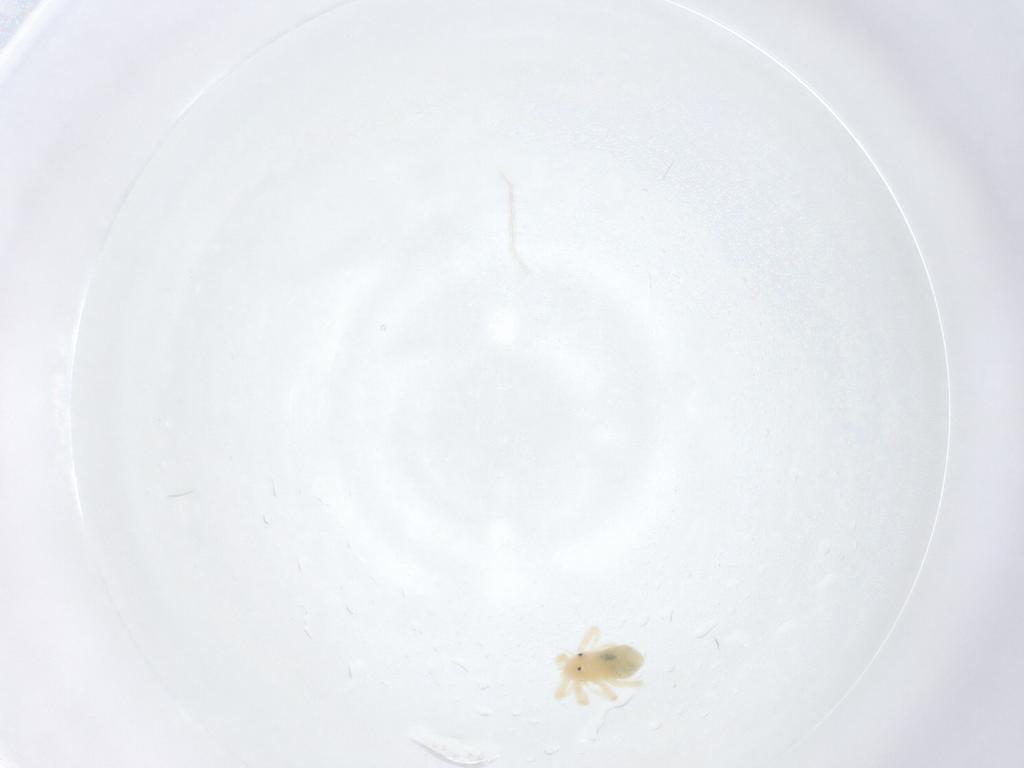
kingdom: Animalia
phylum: Arthropoda
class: Arachnida
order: Trombidiformes
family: Anystidae
